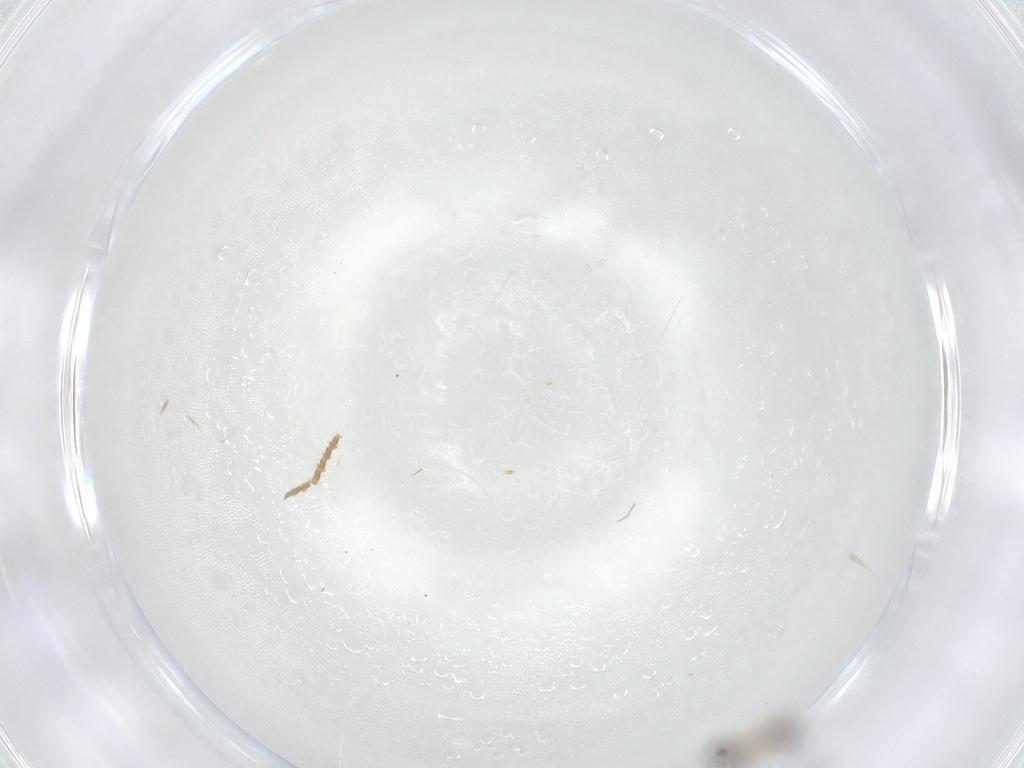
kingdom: Animalia
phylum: Arthropoda
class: Insecta
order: Diptera
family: Cecidomyiidae
